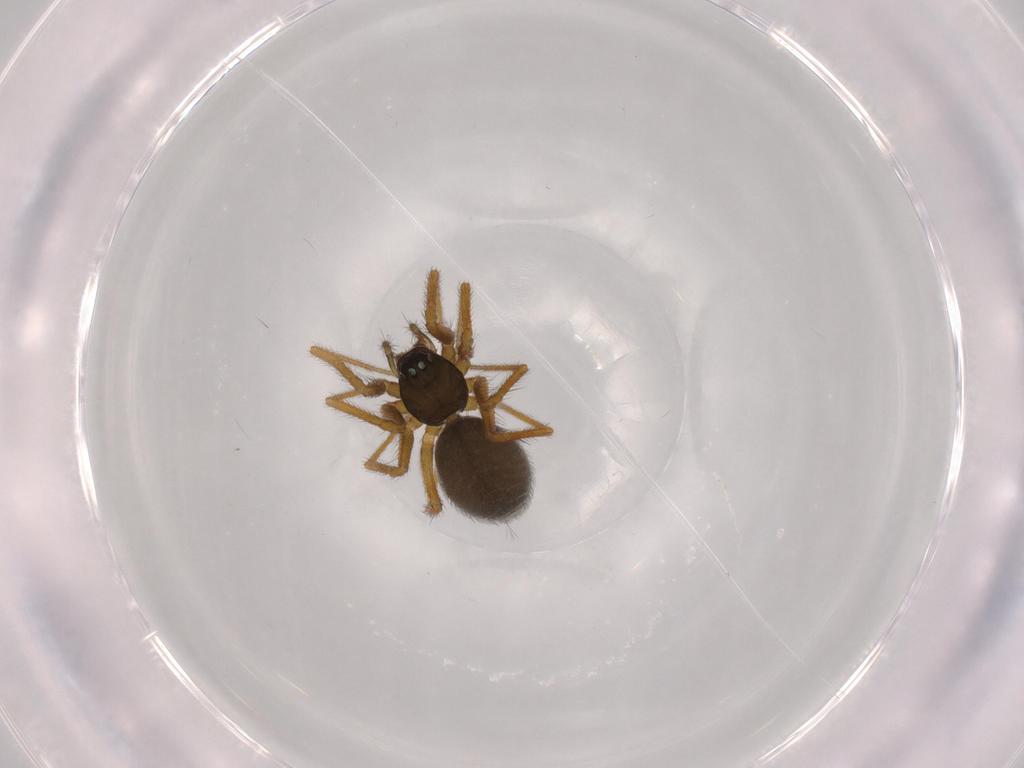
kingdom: Animalia
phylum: Arthropoda
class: Arachnida
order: Araneae
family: Linyphiidae
